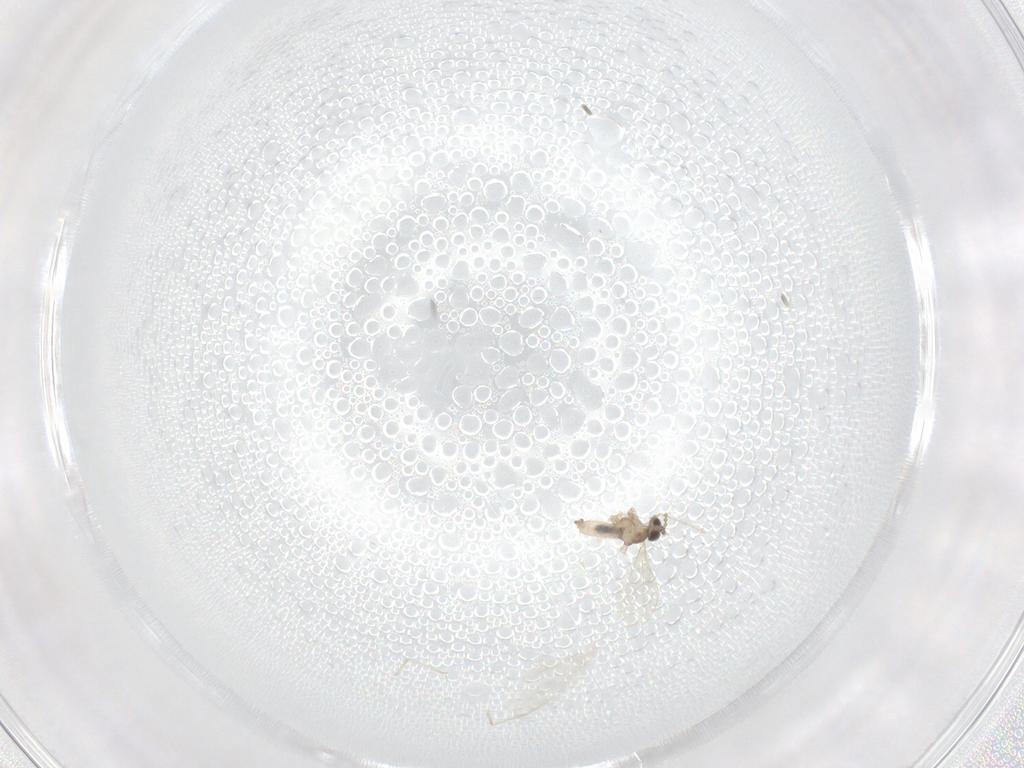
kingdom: Animalia
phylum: Arthropoda
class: Insecta
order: Diptera
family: Cecidomyiidae
